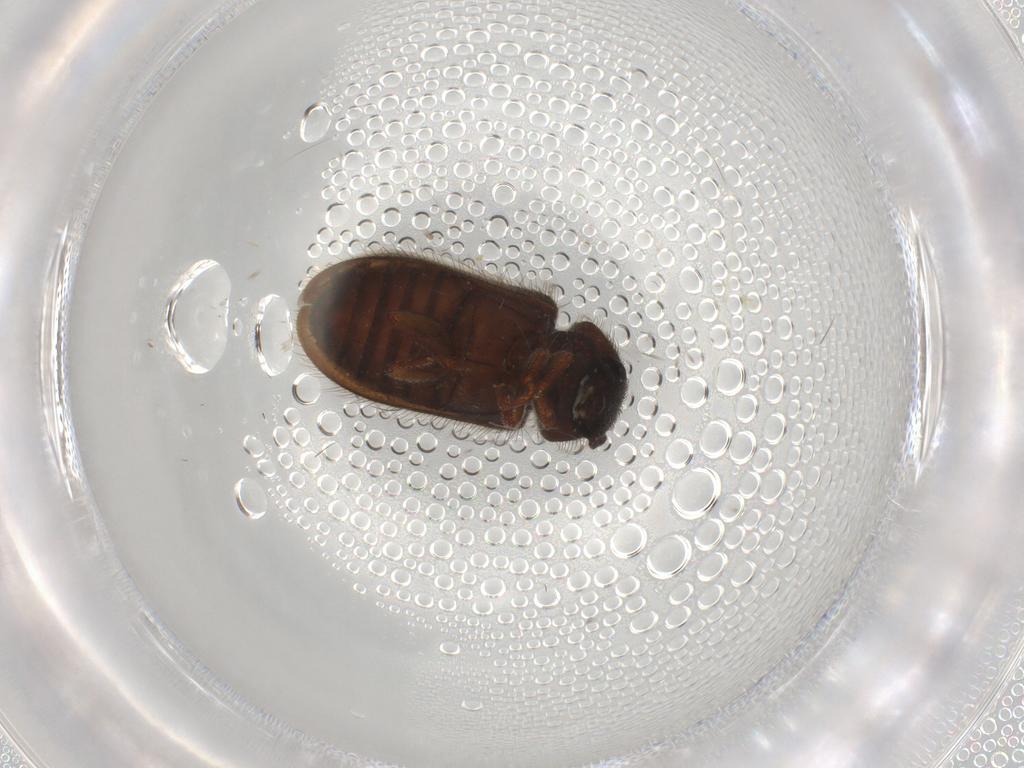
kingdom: Animalia
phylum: Arthropoda
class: Insecta
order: Coleoptera
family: Melyridae
